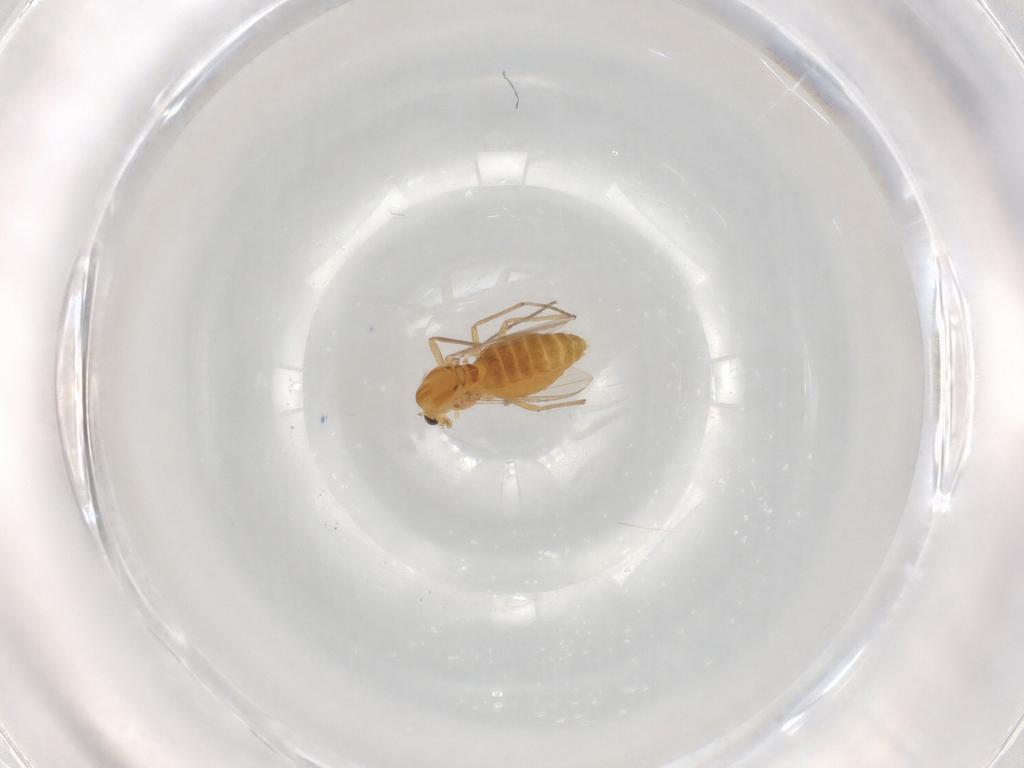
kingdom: Animalia
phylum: Arthropoda
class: Insecta
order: Diptera
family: Chironomidae
